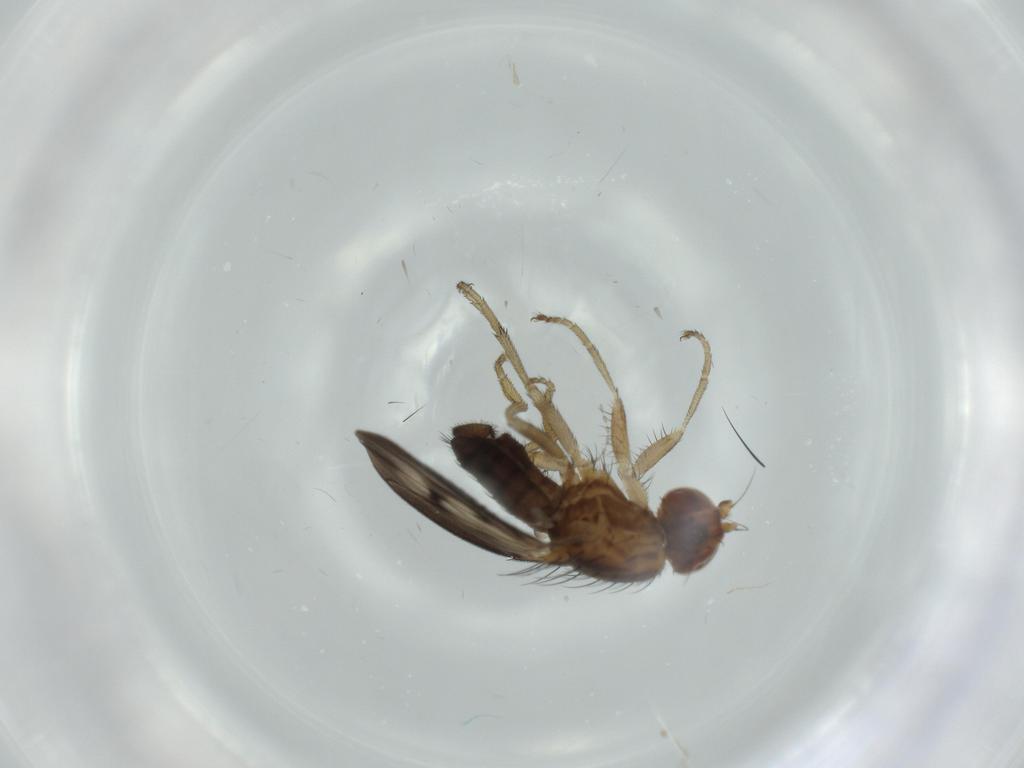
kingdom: Animalia
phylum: Arthropoda
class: Insecta
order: Diptera
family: Heleomyzidae
